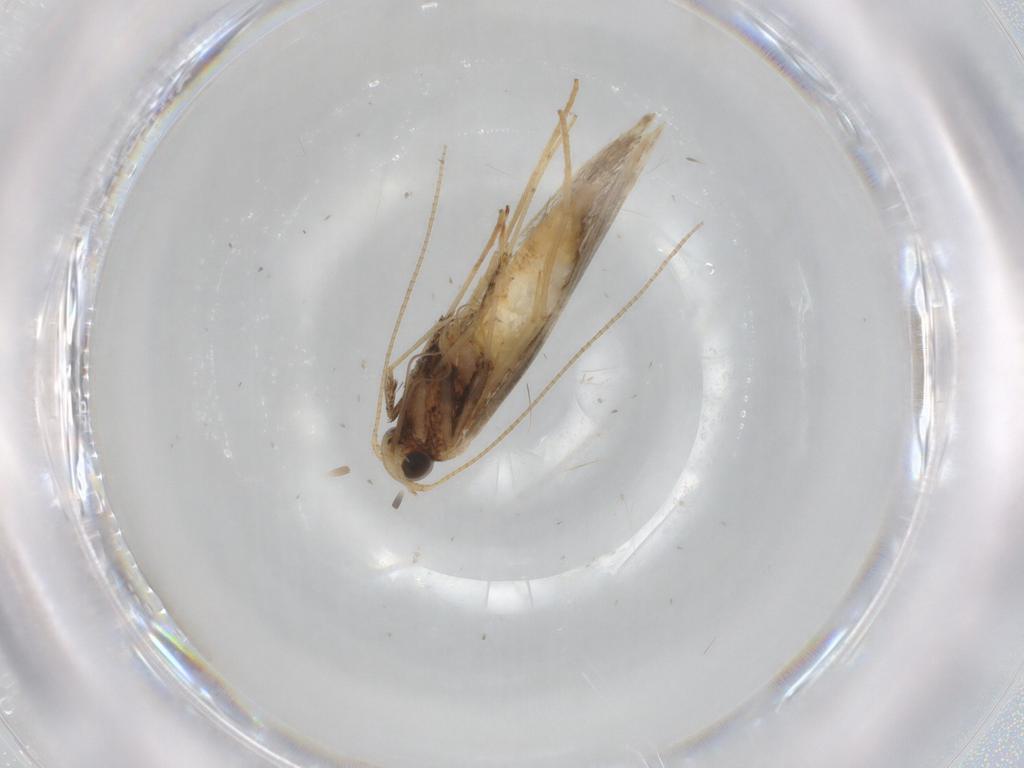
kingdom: Animalia
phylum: Arthropoda
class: Insecta
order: Lepidoptera
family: Gracillariidae
